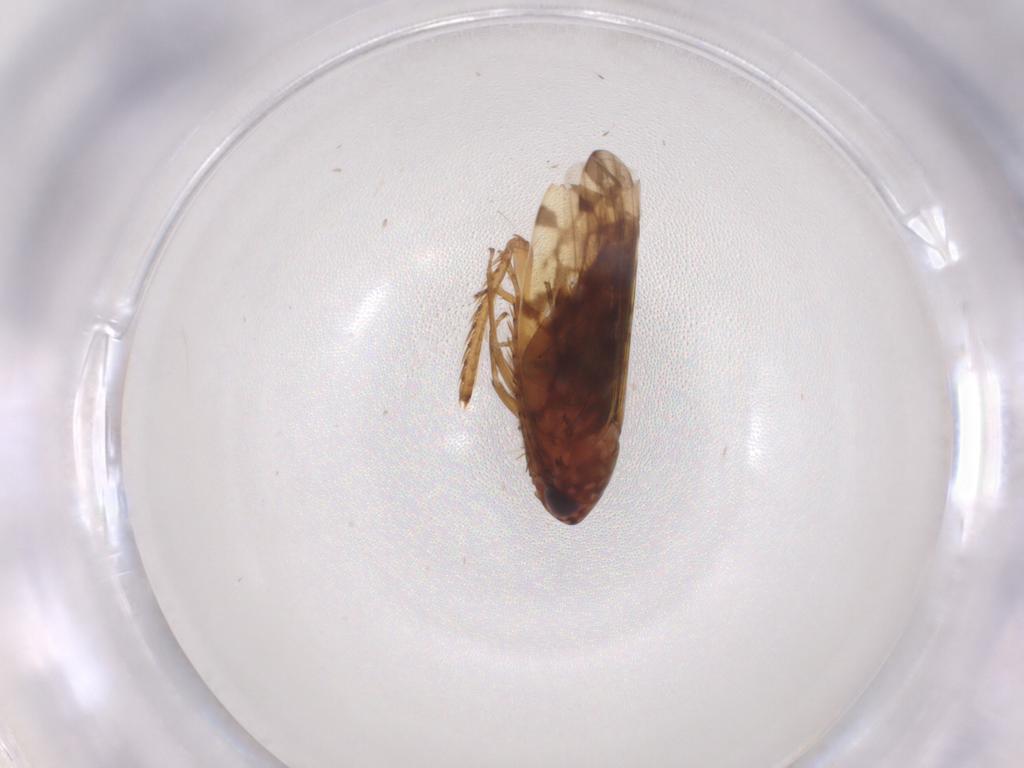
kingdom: Animalia
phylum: Arthropoda
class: Insecta
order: Hemiptera
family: Cicadellidae
